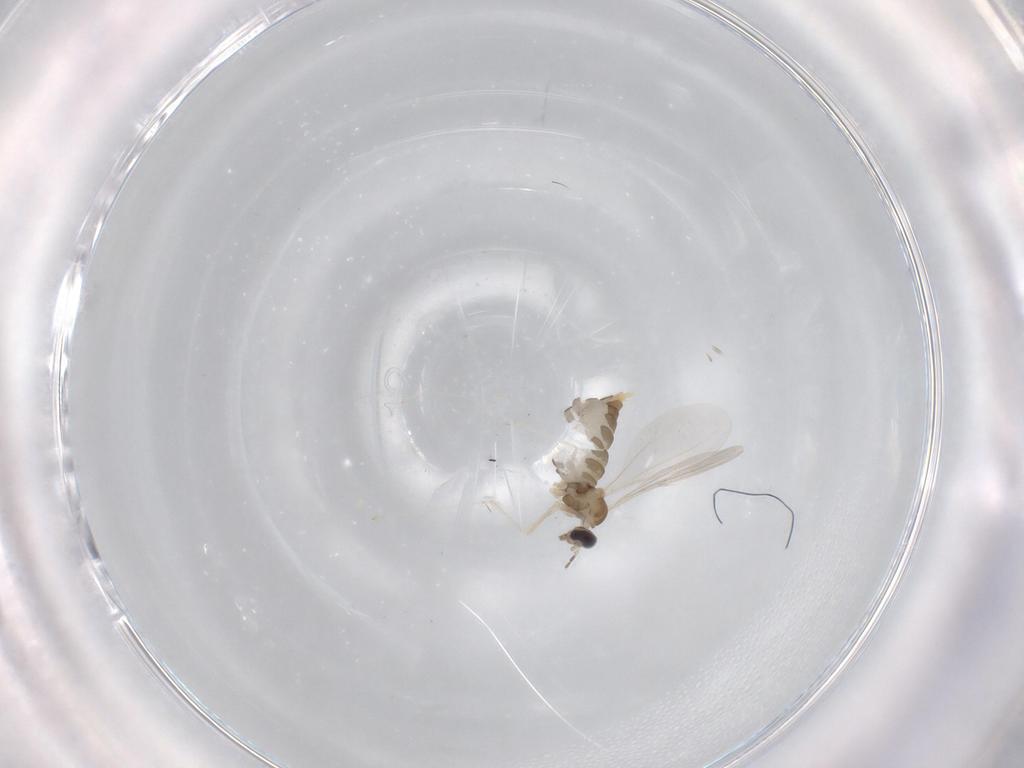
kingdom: Animalia
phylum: Arthropoda
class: Insecta
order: Diptera
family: Cecidomyiidae
